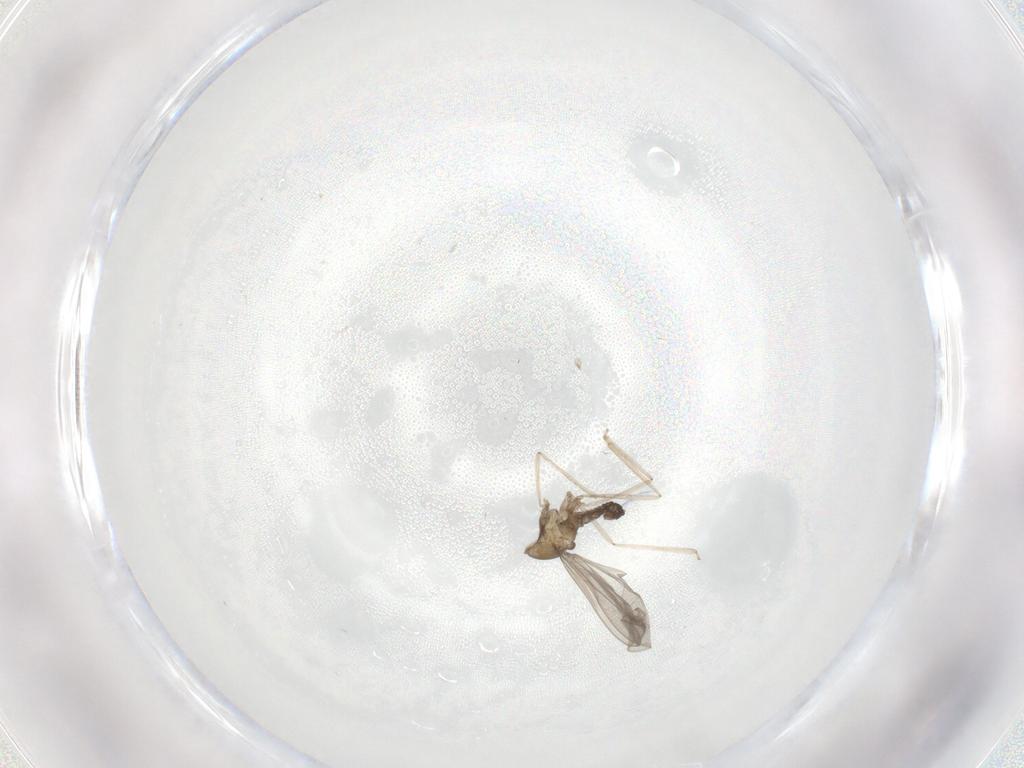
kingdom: Animalia
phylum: Arthropoda
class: Insecta
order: Diptera
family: Cecidomyiidae
